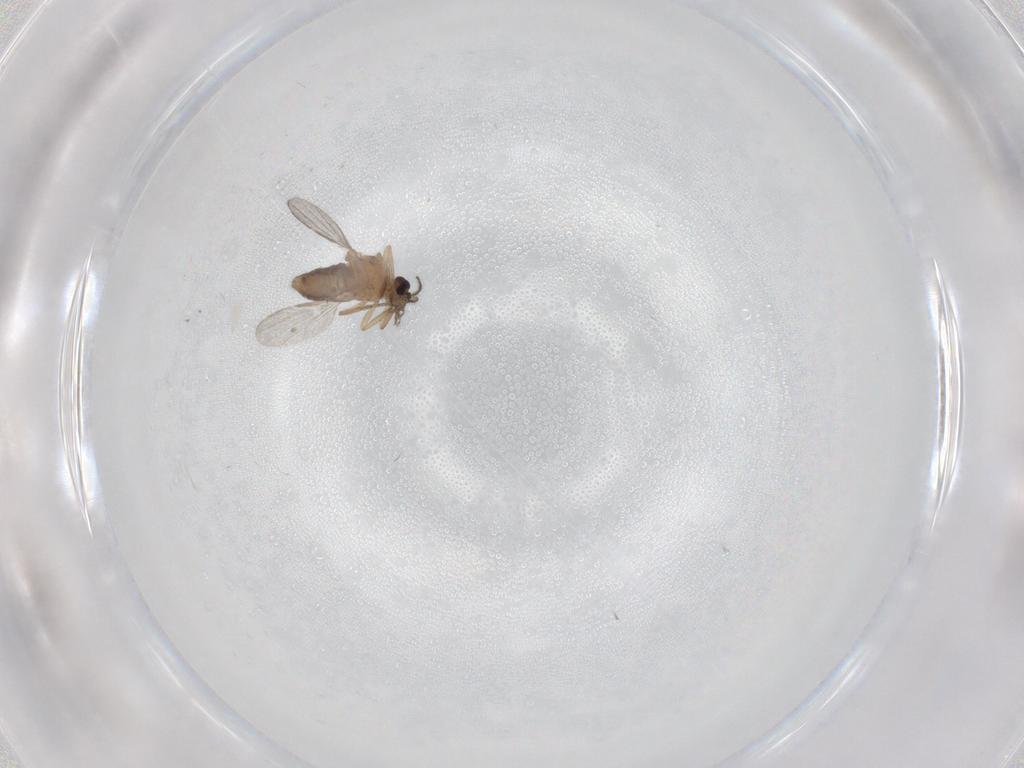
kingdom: Animalia
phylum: Arthropoda
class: Insecta
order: Diptera
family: Ceratopogonidae
